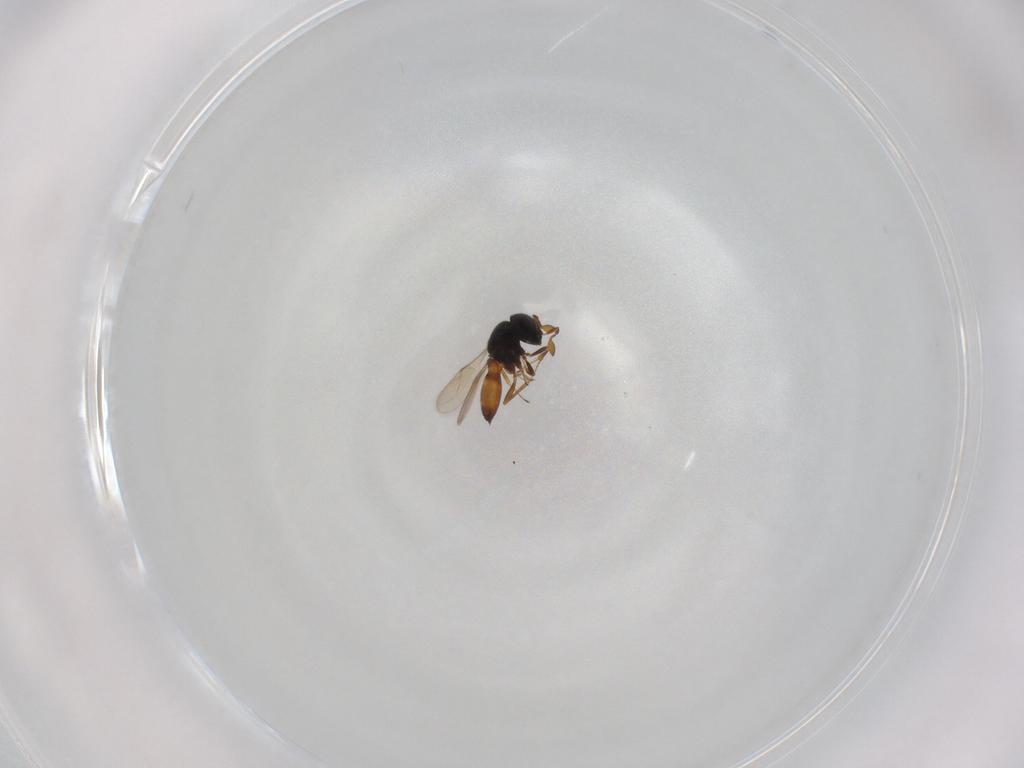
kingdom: Animalia
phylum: Arthropoda
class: Insecta
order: Hymenoptera
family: Scelionidae
